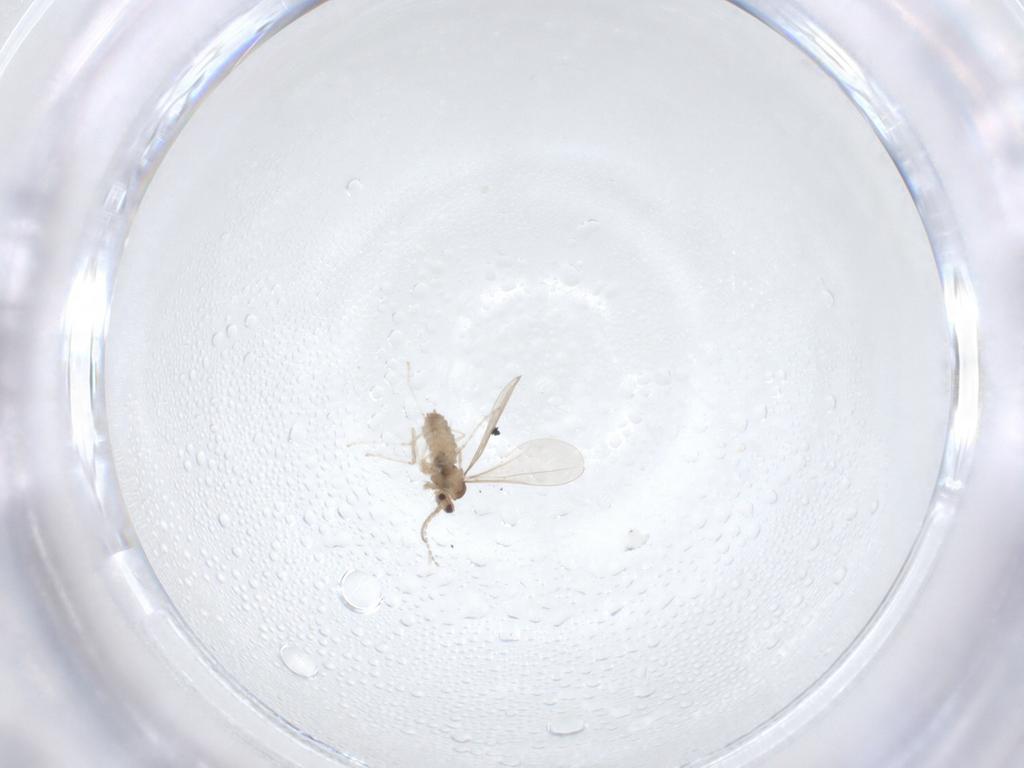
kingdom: Animalia
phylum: Arthropoda
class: Insecta
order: Diptera
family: Cecidomyiidae
